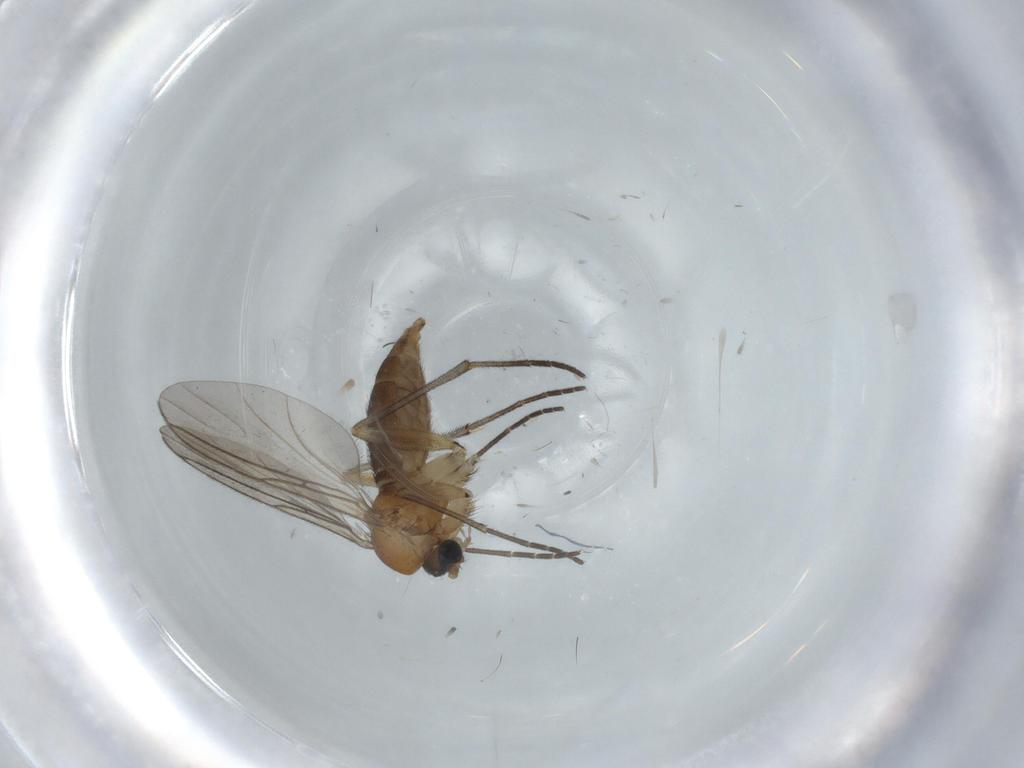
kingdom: Animalia
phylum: Arthropoda
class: Insecta
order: Diptera
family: Sciaridae
